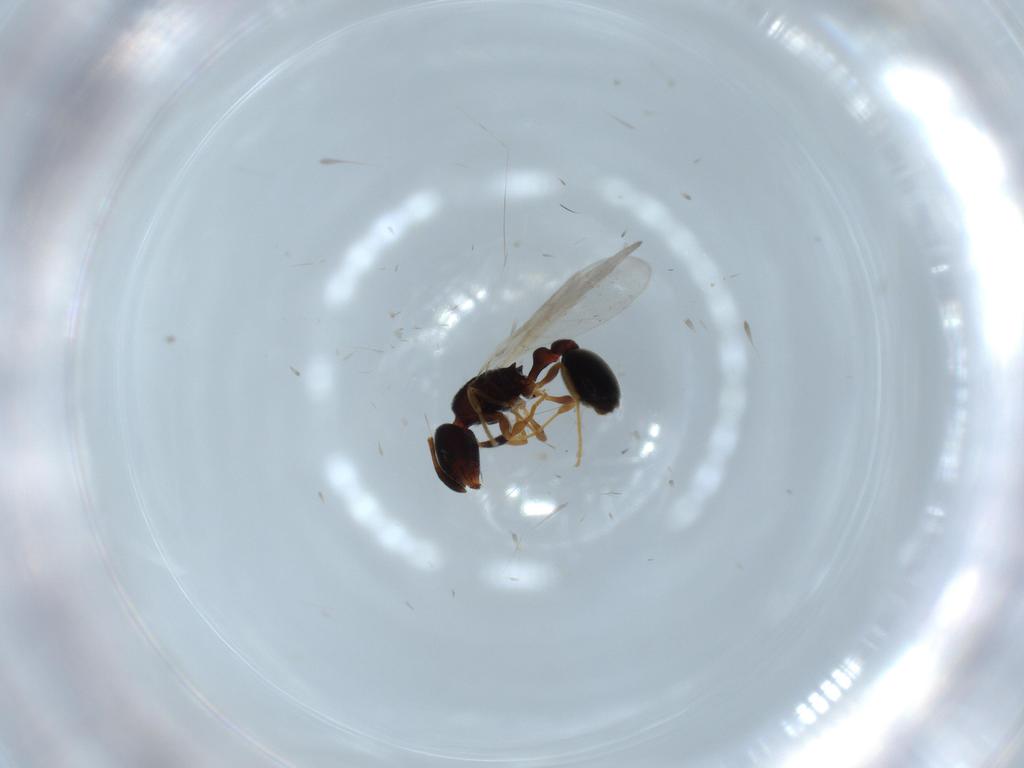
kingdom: Animalia
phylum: Arthropoda
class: Insecta
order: Hymenoptera
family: Formicidae
